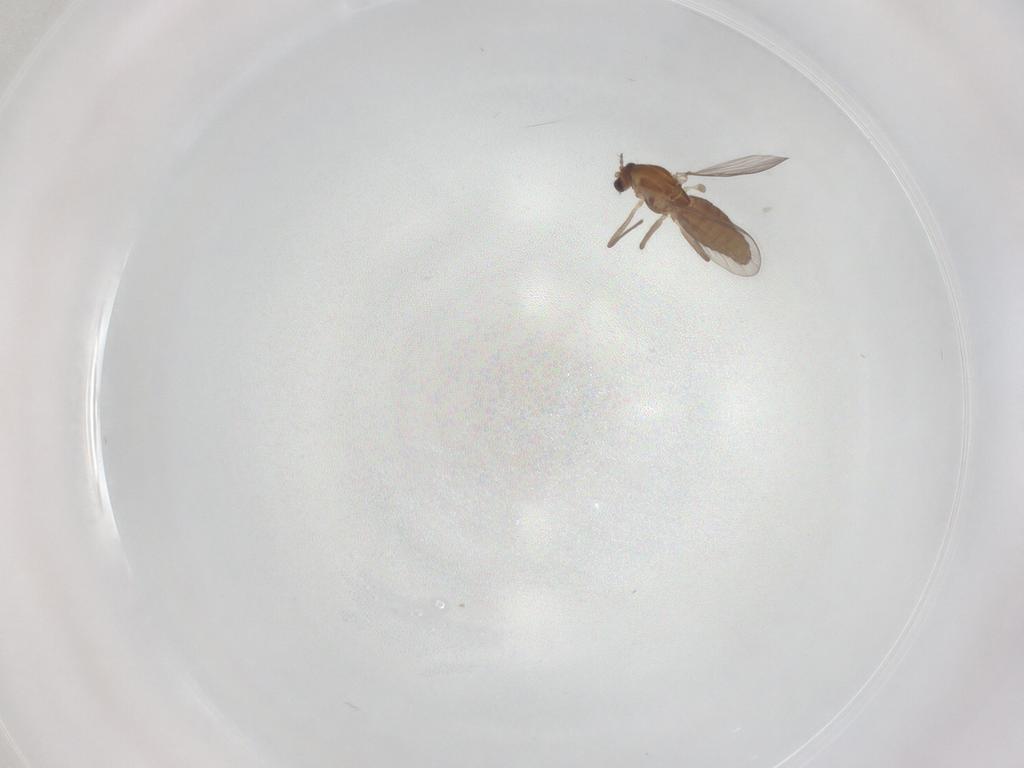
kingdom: Animalia
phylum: Arthropoda
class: Insecta
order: Diptera
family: Chironomidae
